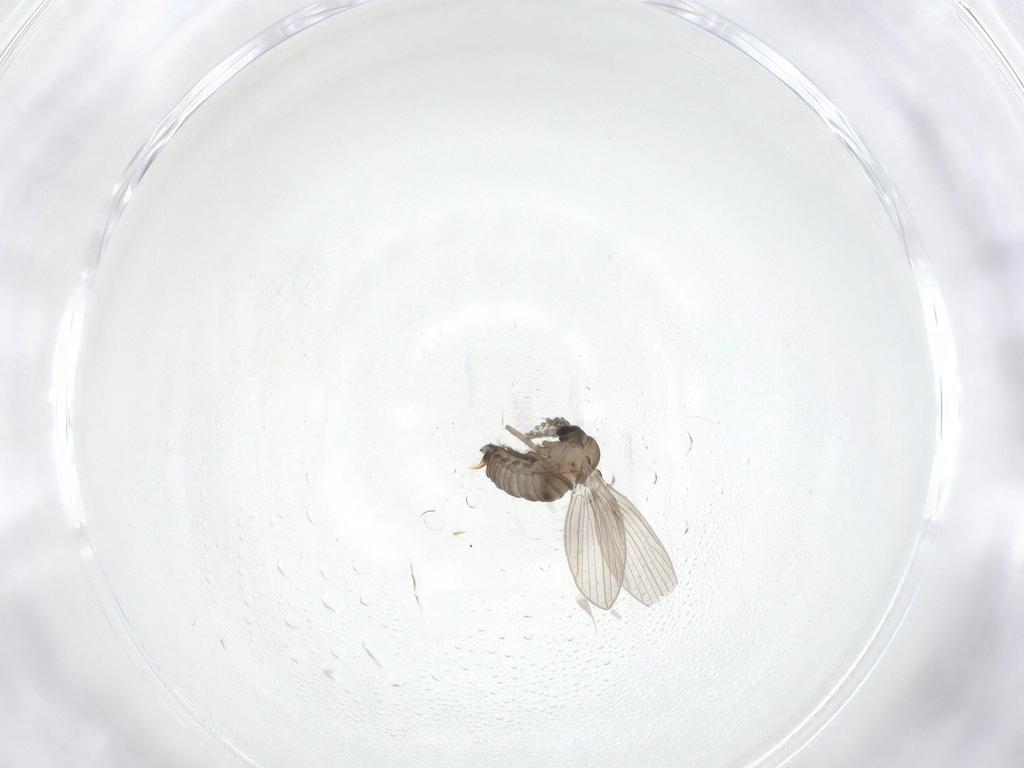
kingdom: Animalia
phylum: Arthropoda
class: Insecta
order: Diptera
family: Psychodidae
